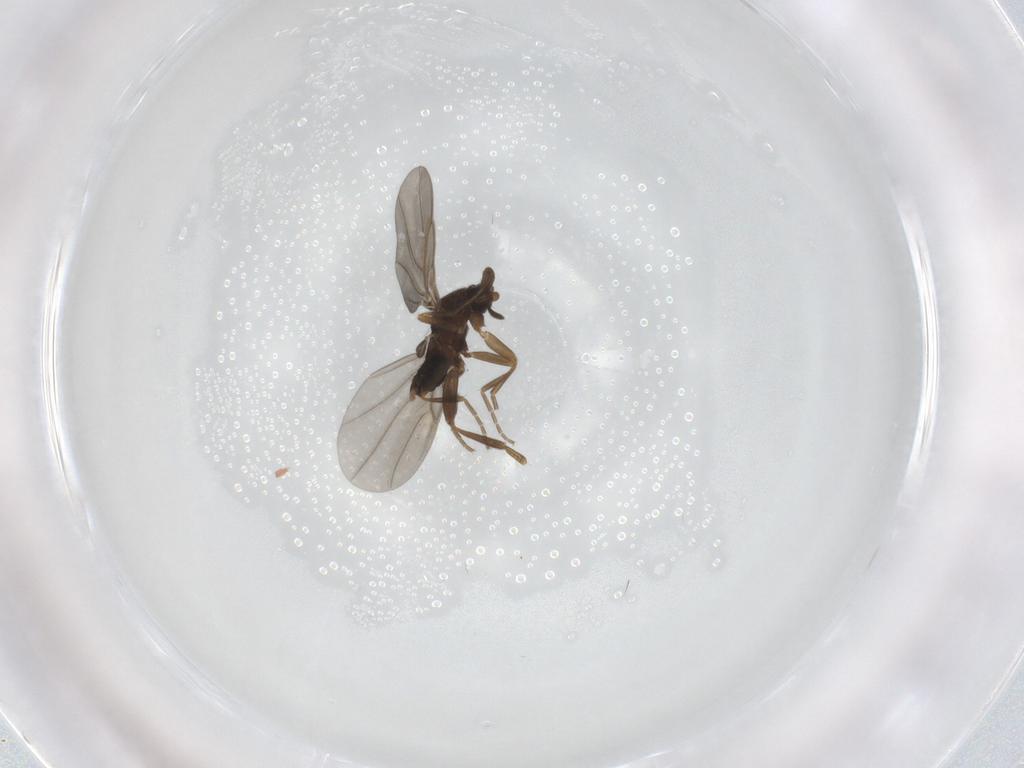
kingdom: Animalia
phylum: Arthropoda
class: Insecta
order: Diptera
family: Phoridae
